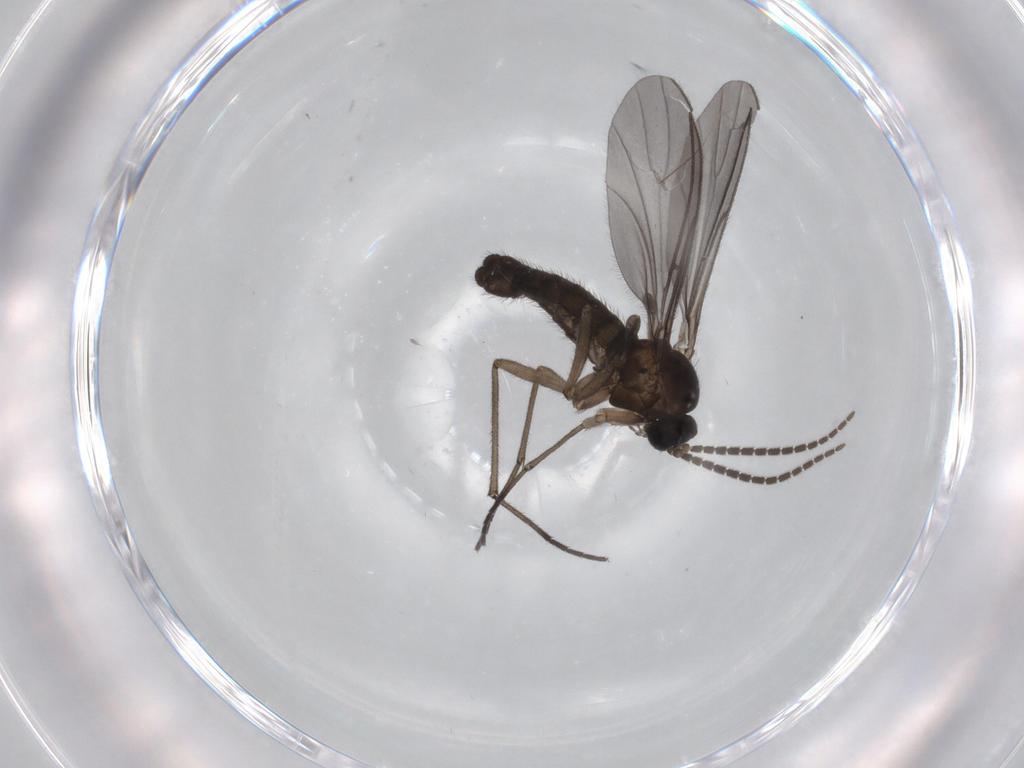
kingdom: Animalia
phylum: Arthropoda
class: Insecta
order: Diptera
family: Sciaridae
